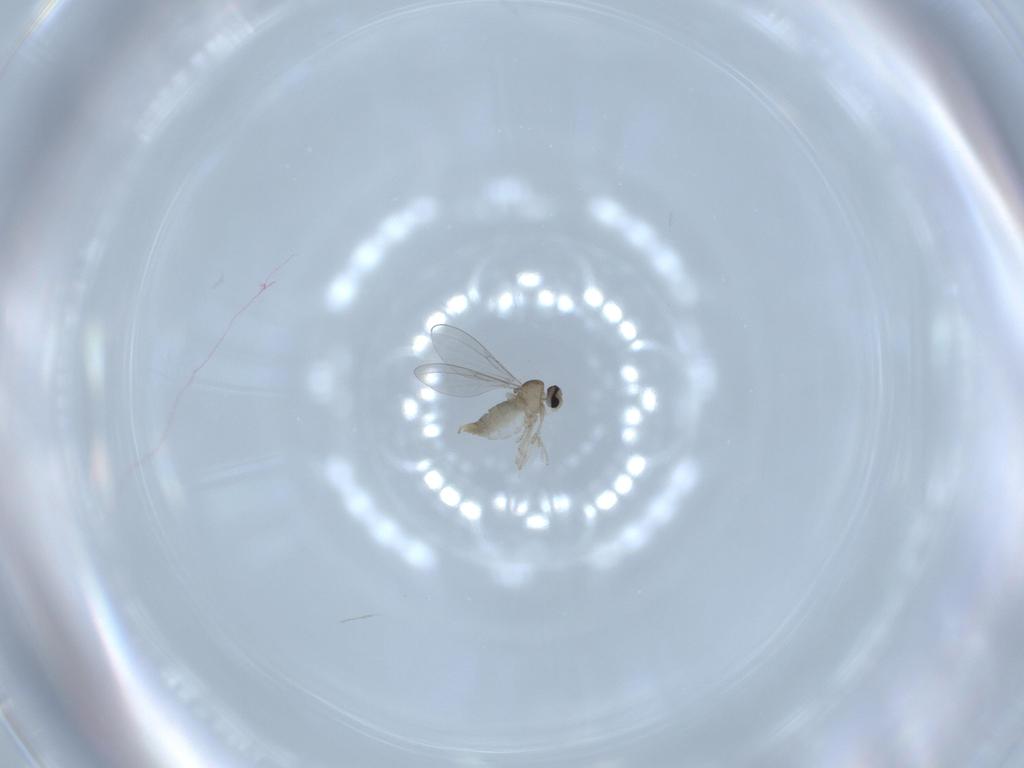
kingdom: Animalia
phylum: Arthropoda
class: Insecta
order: Diptera
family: Cecidomyiidae
